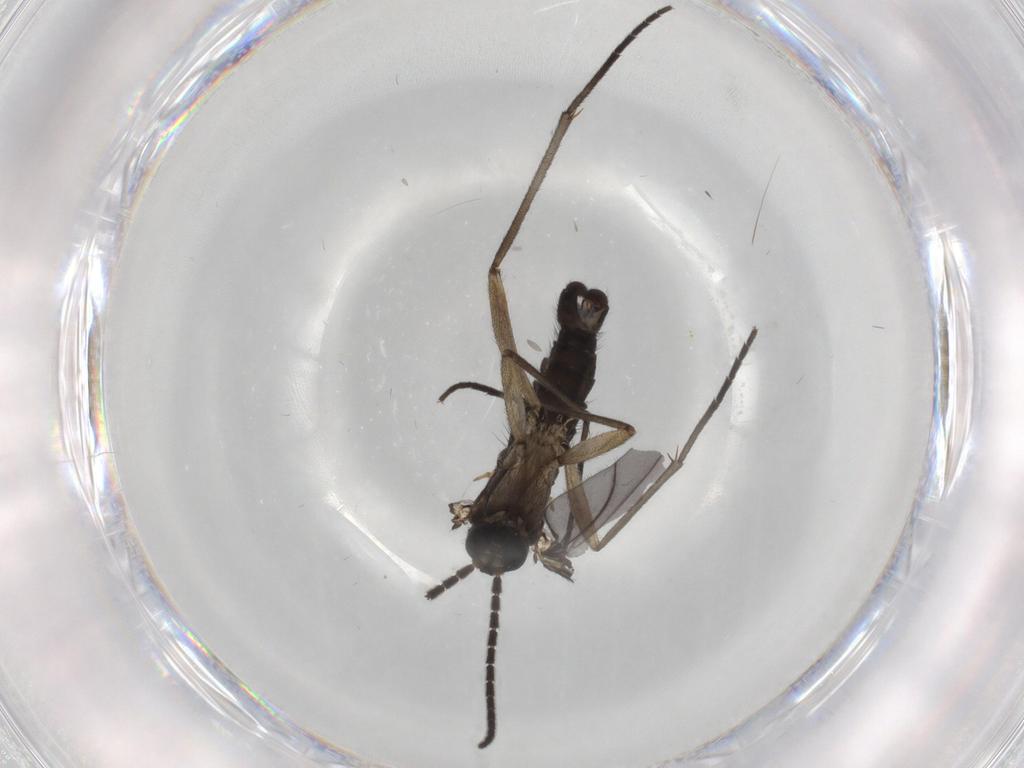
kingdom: Animalia
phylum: Arthropoda
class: Insecta
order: Diptera
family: Sciaridae
